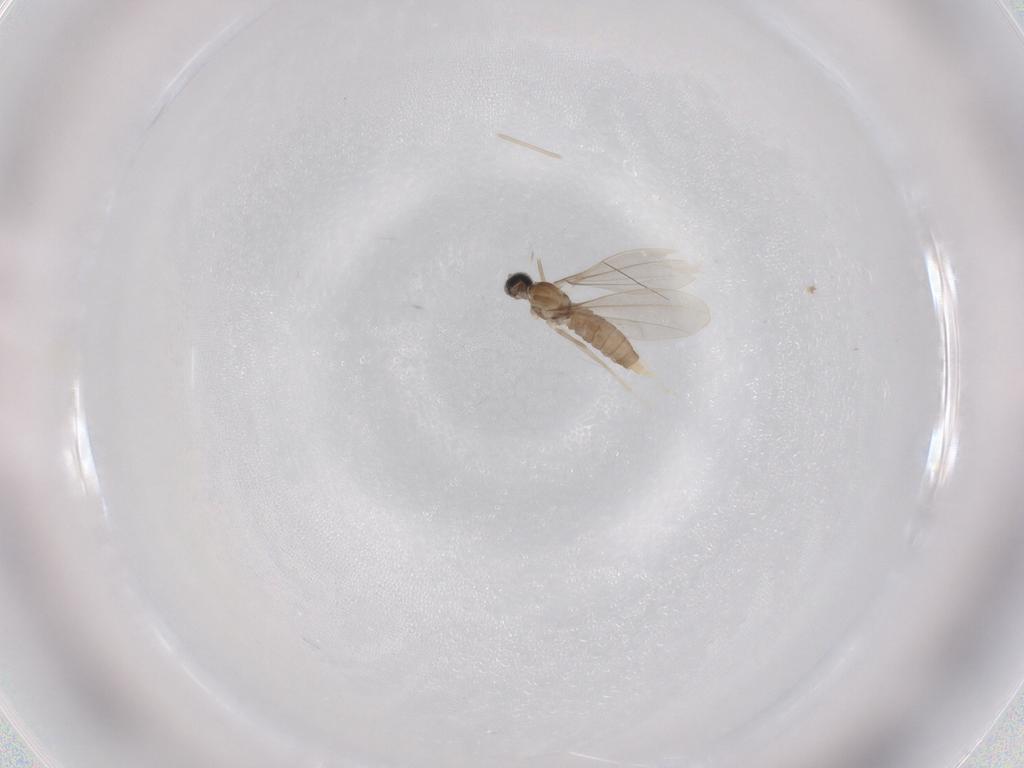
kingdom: Animalia
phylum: Arthropoda
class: Insecta
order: Diptera
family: Cecidomyiidae
